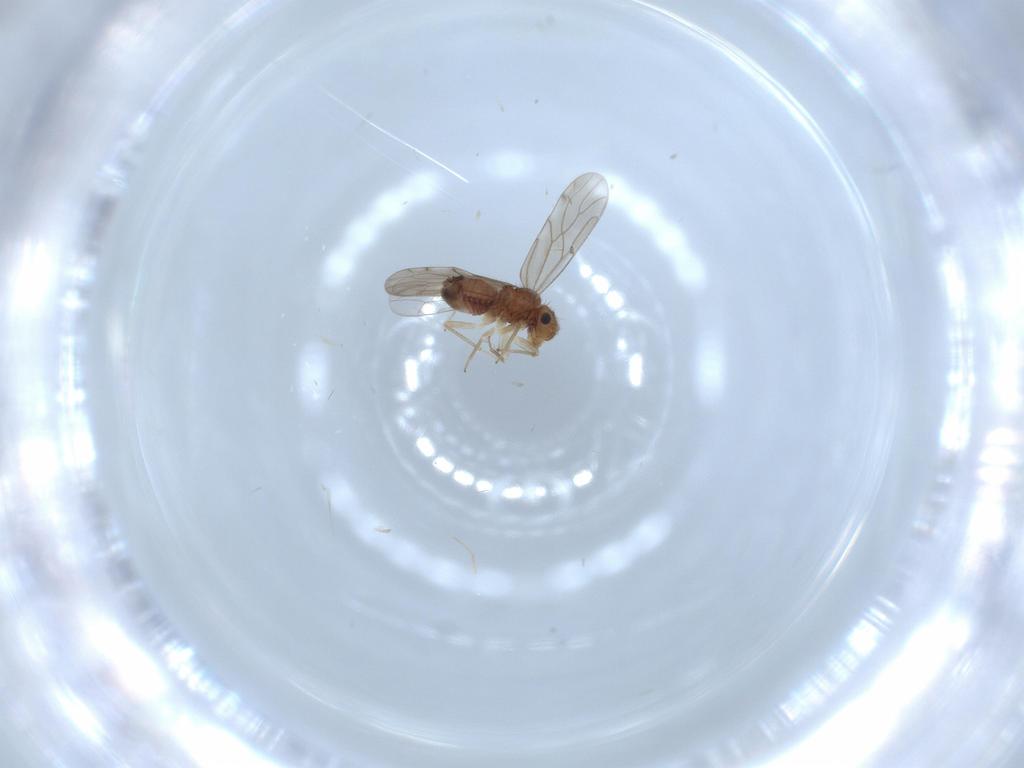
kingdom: Animalia
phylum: Arthropoda
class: Insecta
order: Psocodea
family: Ectopsocidae
